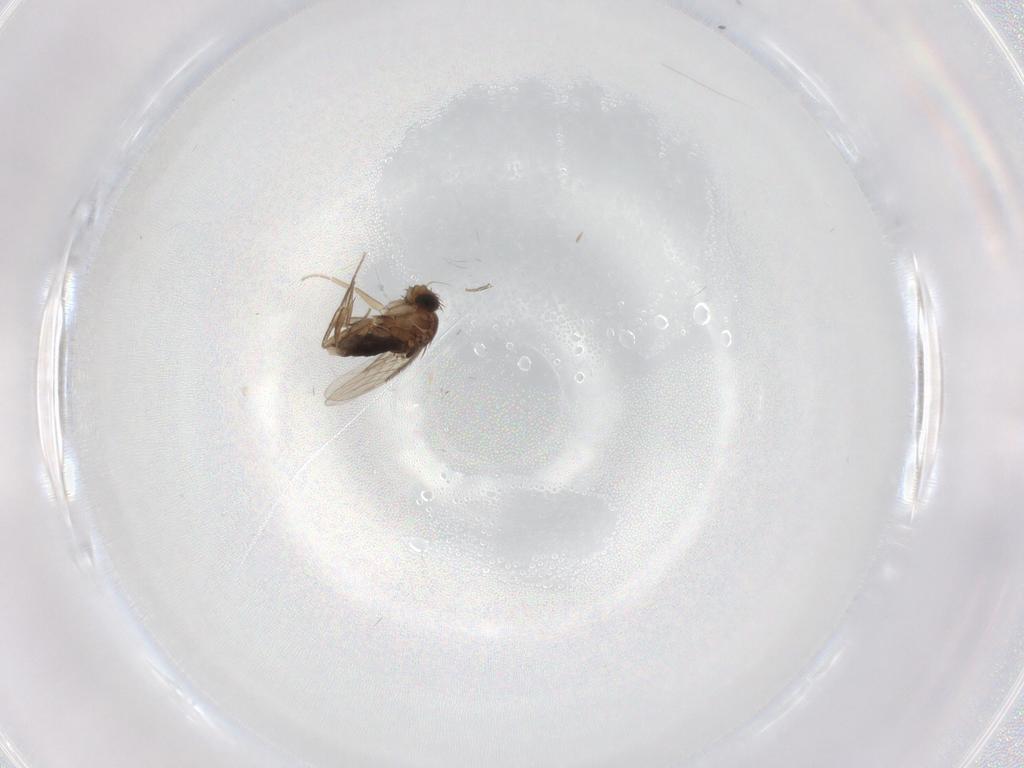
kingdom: Animalia
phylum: Arthropoda
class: Insecta
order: Diptera
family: Phoridae
